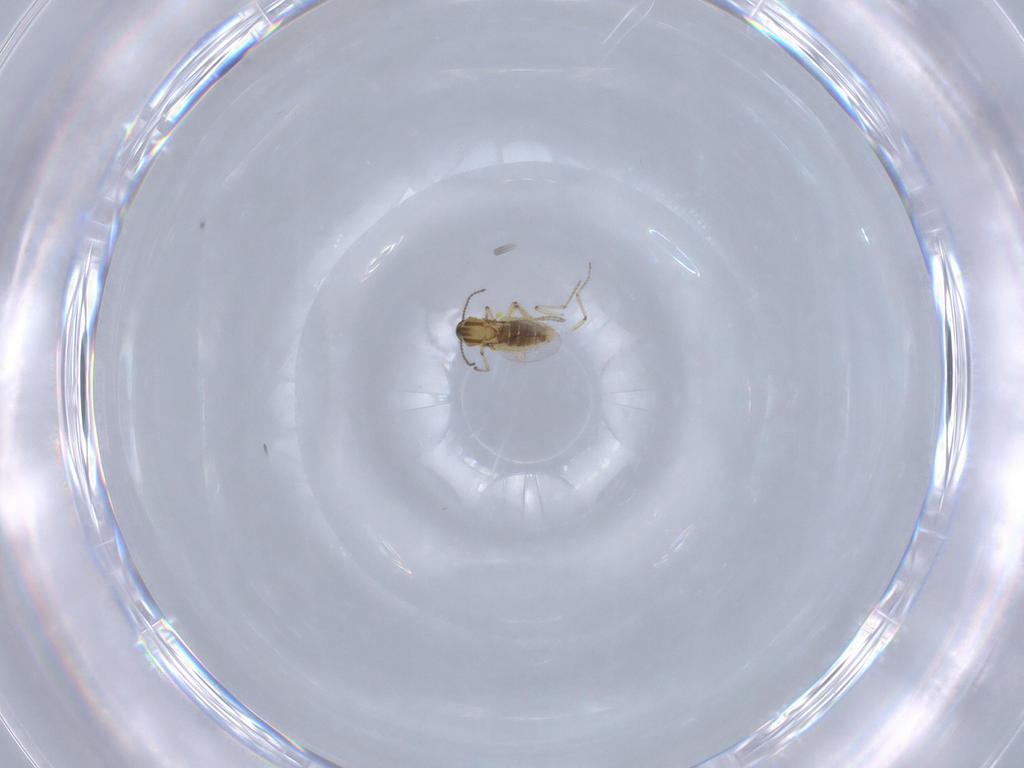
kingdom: Animalia
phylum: Arthropoda
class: Insecta
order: Diptera
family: Ceratopogonidae
